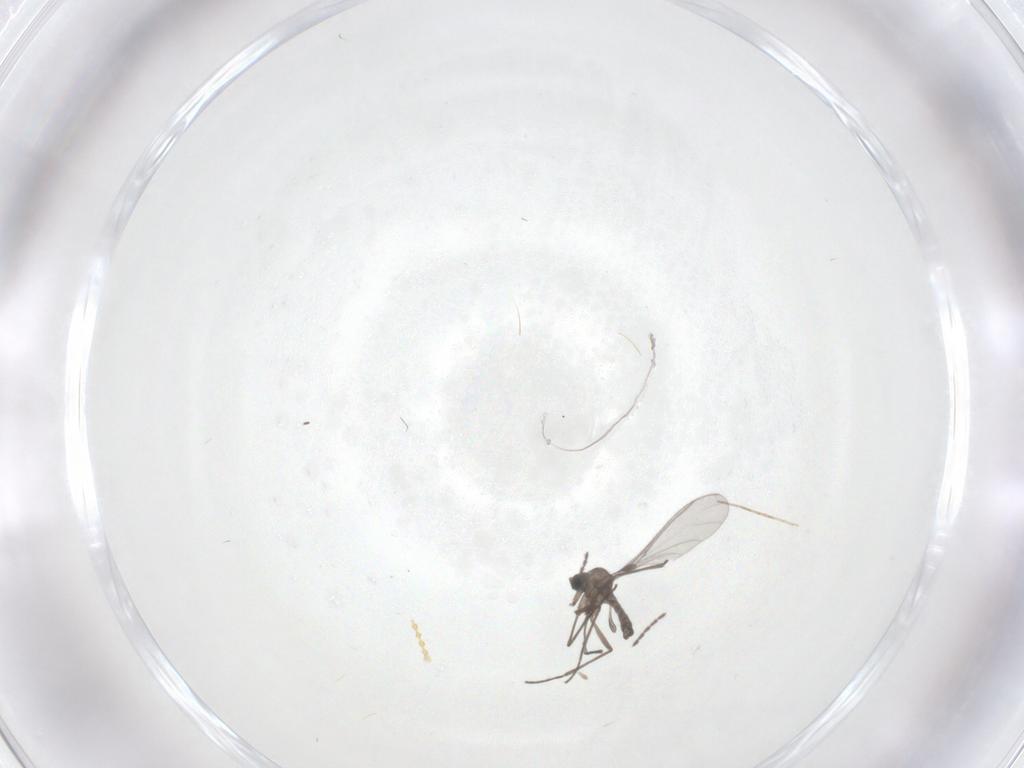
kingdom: Animalia
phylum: Arthropoda
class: Insecta
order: Diptera
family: Sciaridae
